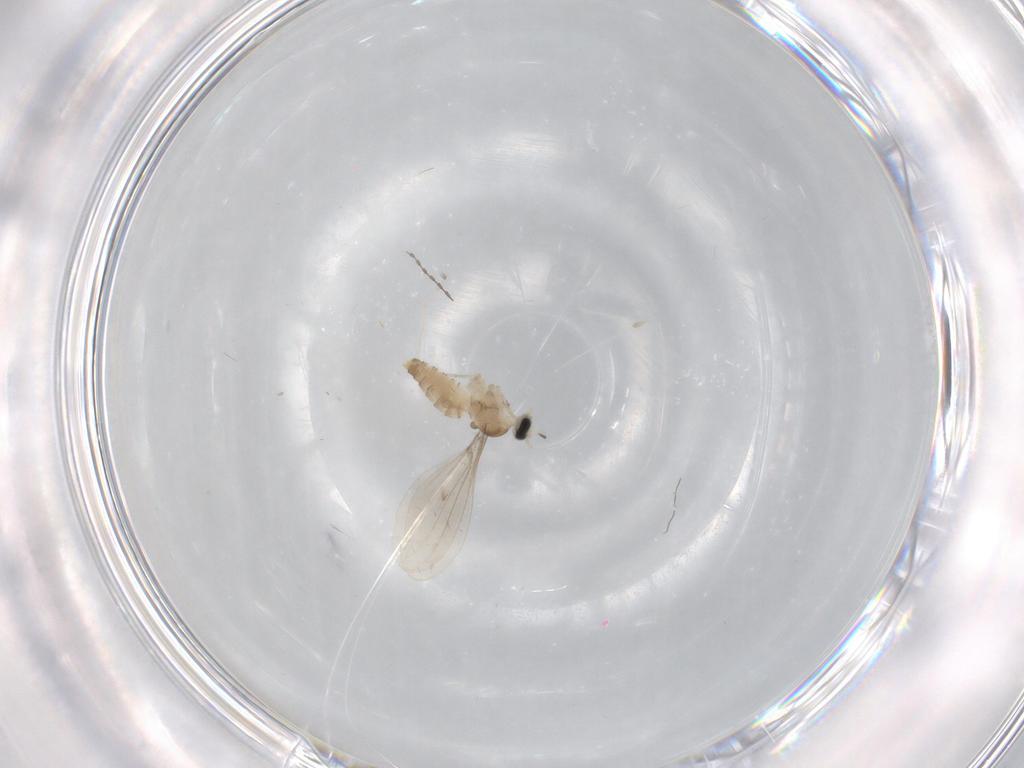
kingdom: Animalia
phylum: Arthropoda
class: Insecta
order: Diptera
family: Cecidomyiidae
